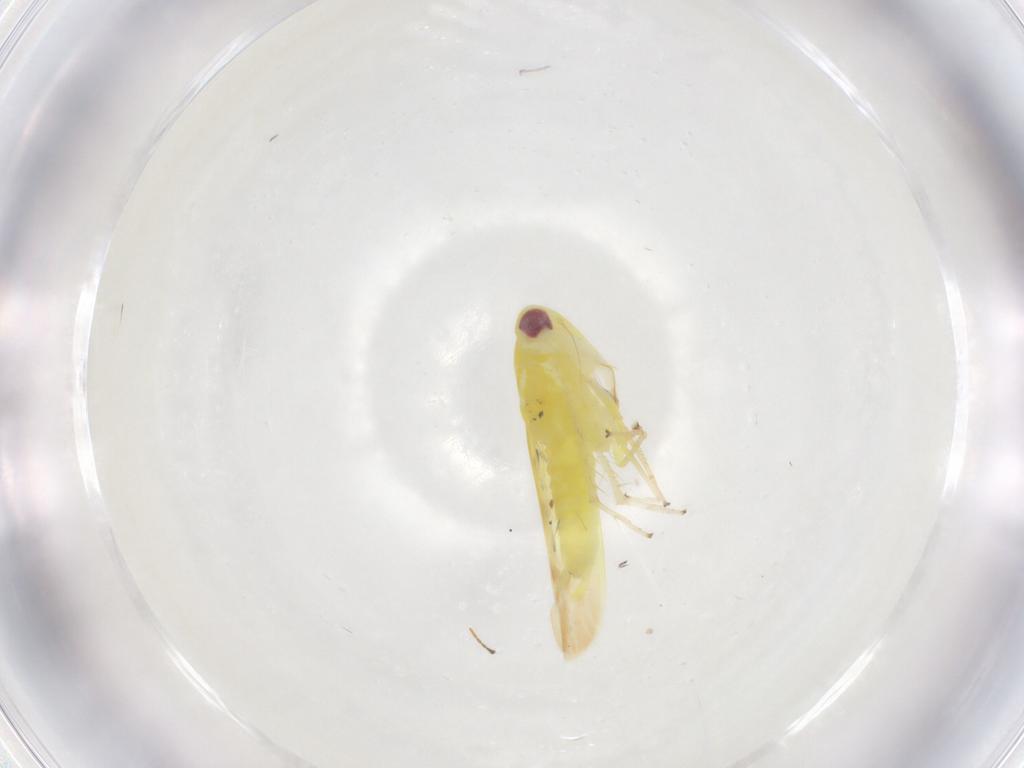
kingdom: Animalia
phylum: Arthropoda
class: Insecta
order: Hemiptera
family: Cicadellidae
